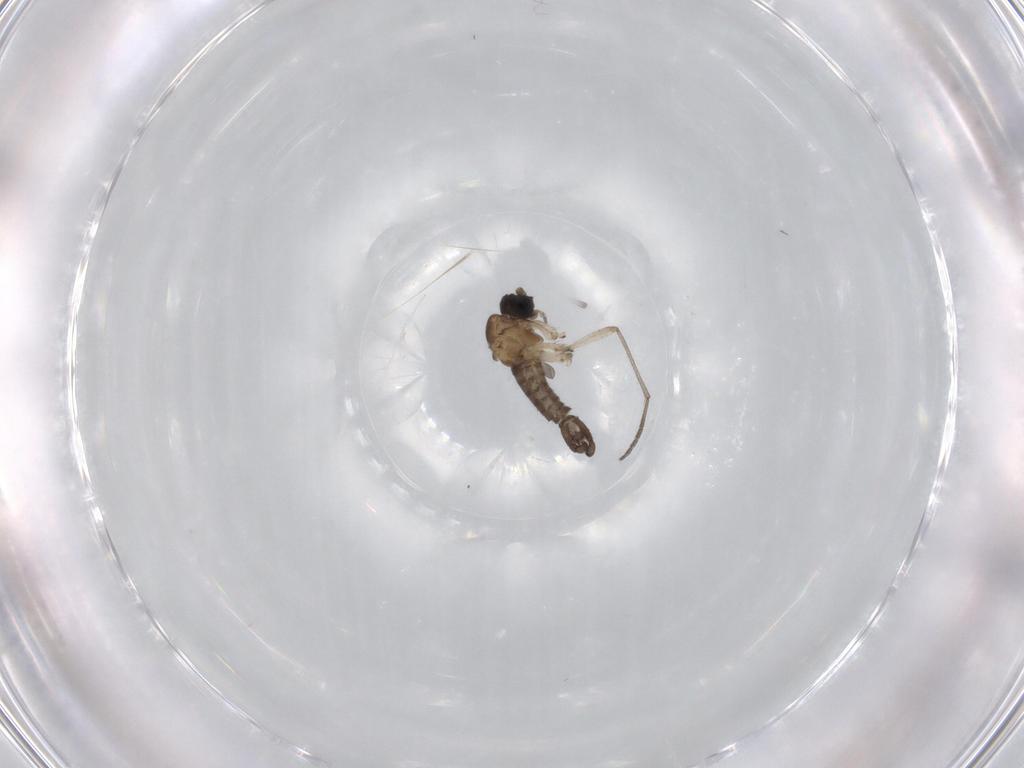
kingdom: Animalia
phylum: Arthropoda
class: Insecta
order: Diptera
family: Sciaridae
